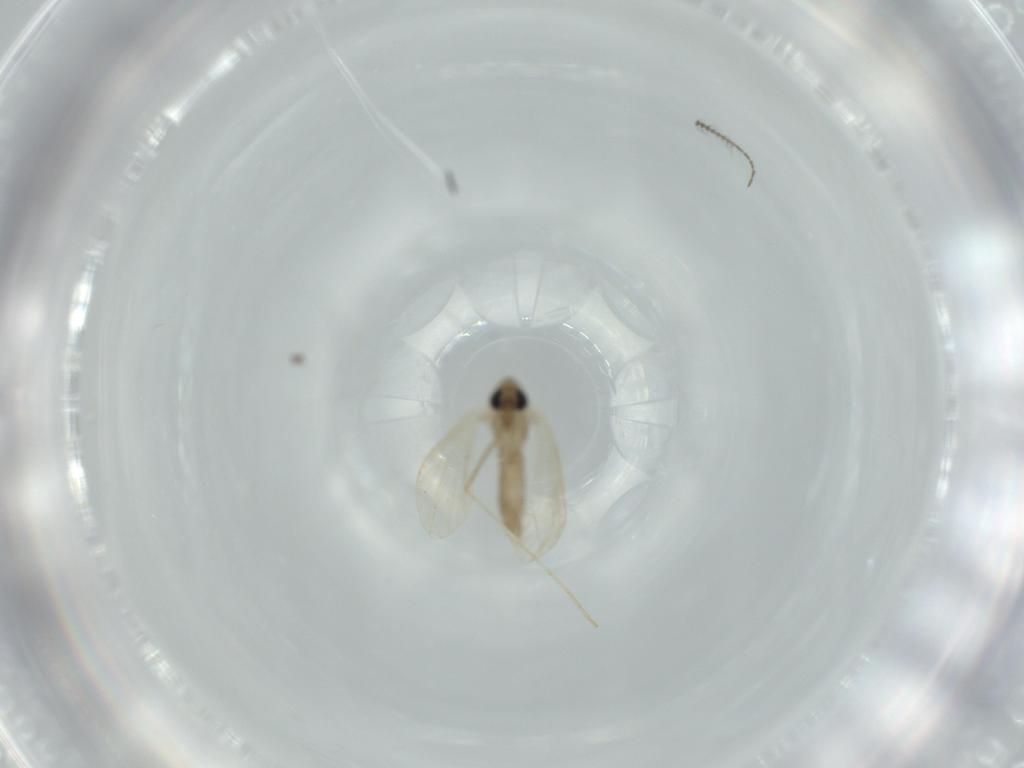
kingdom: Animalia
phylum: Arthropoda
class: Insecta
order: Diptera
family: Psychodidae
